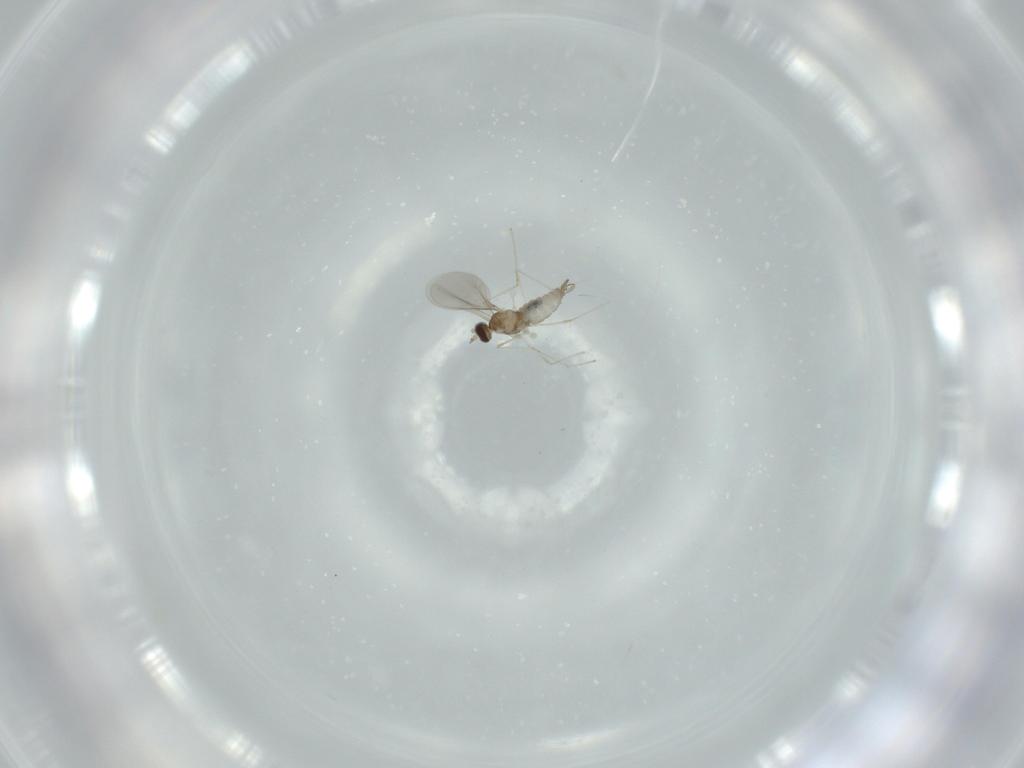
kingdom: Animalia
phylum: Arthropoda
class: Insecta
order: Diptera
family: Cecidomyiidae
